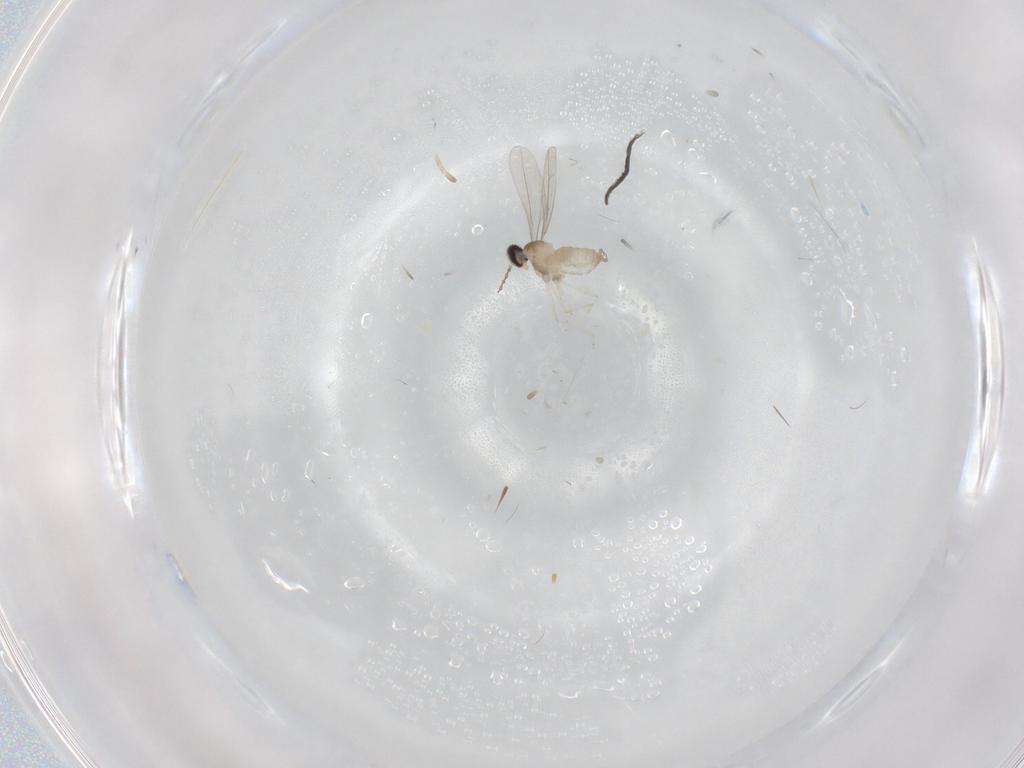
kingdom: Animalia
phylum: Arthropoda
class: Insecta
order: Diptera
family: Cecidomyiidae
